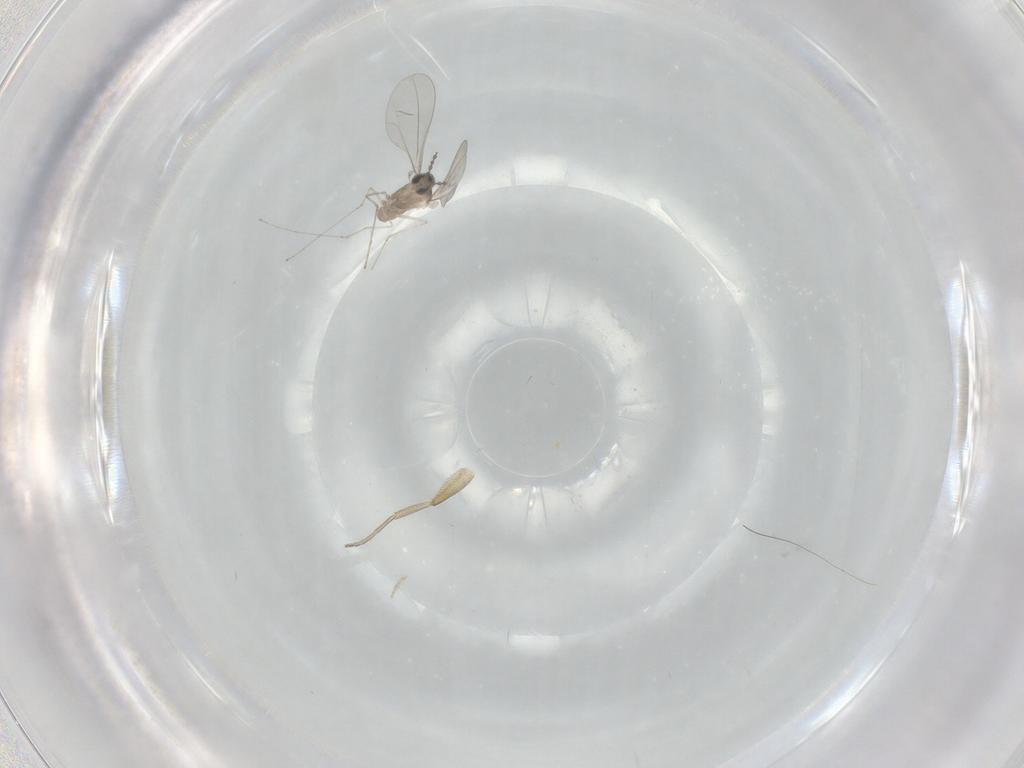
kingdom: Animalia
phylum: Arthropoda
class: Insecta
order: Diptera
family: Cecidomyiidae
